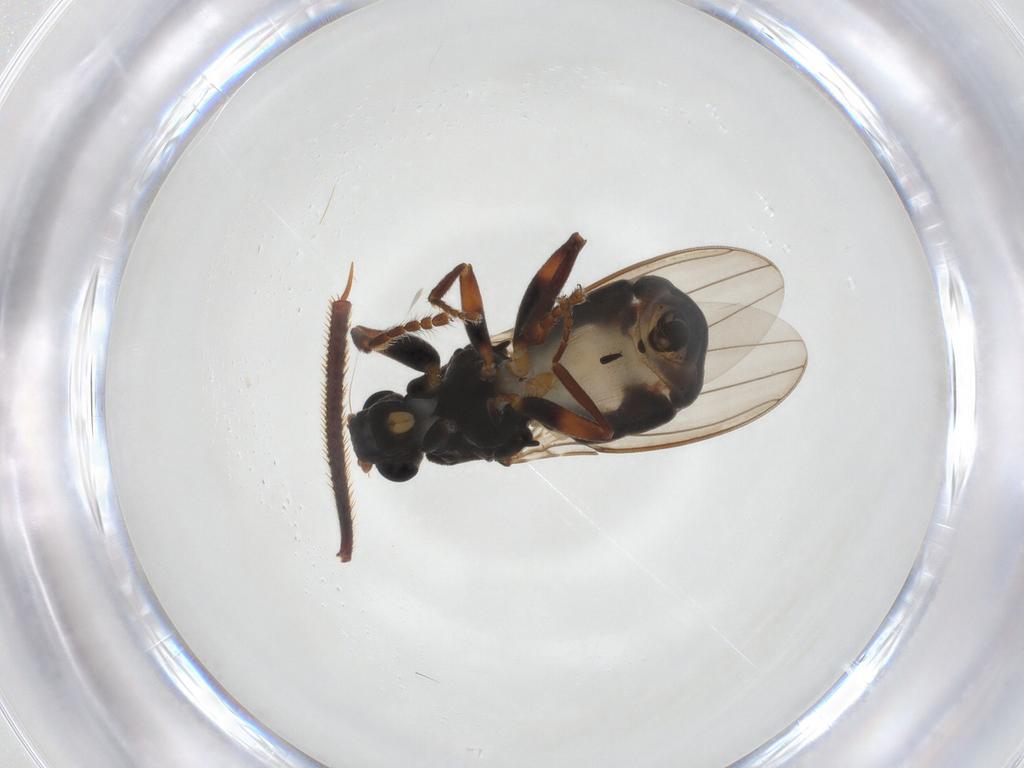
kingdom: Animalia
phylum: Arthropoda
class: Insecta
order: Diptera
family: Sphaeroceridae
